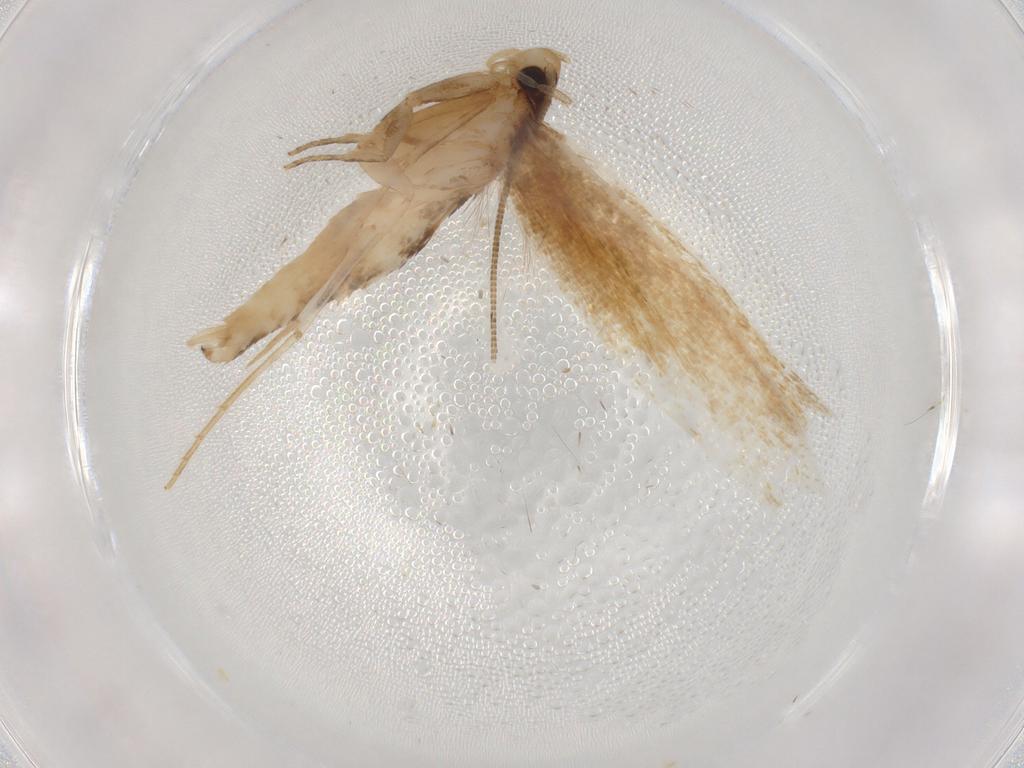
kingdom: Animalia
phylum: Arthropoda
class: Insecta
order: Lepidoptera
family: Tineidae
